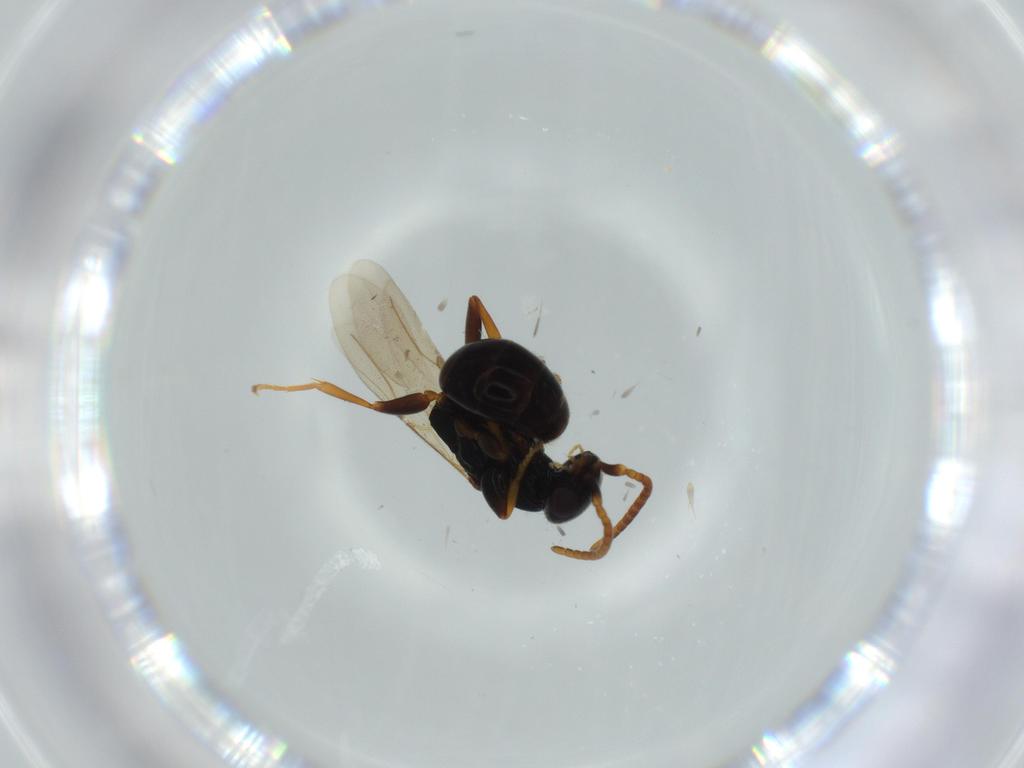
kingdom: Animalia
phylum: Arthropoda
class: Insecta
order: Hymenoptera
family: Bethylidae
